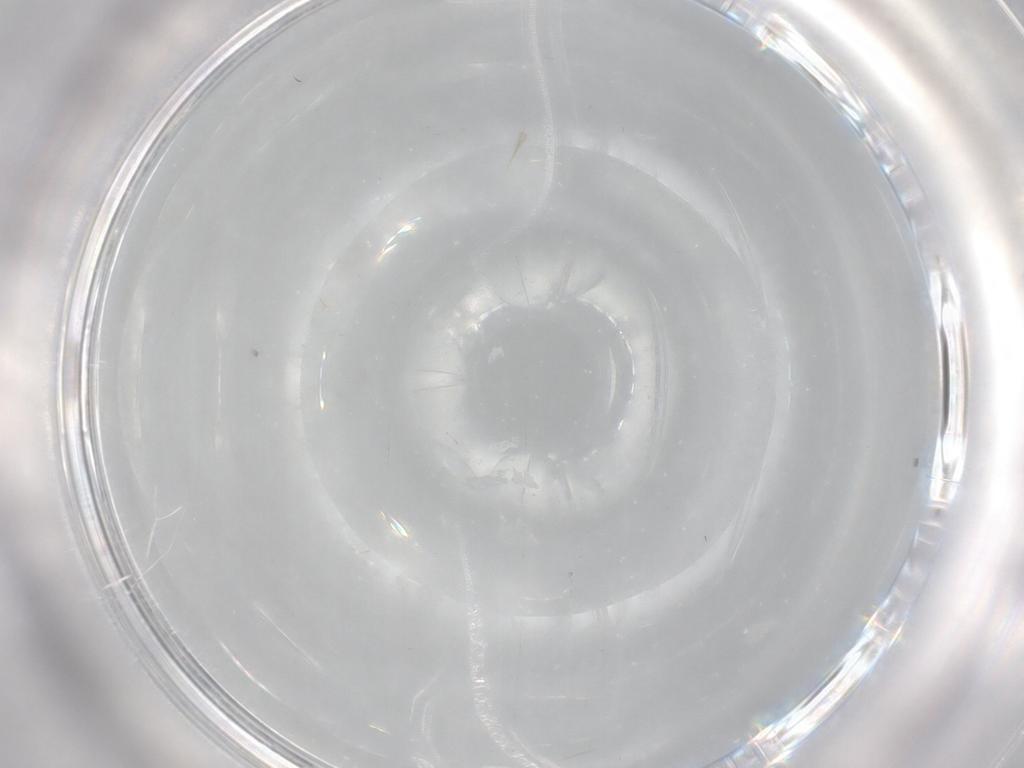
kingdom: Animalia
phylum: Arthropoda
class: Insecta
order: Diptera
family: Cecidomyiidae
